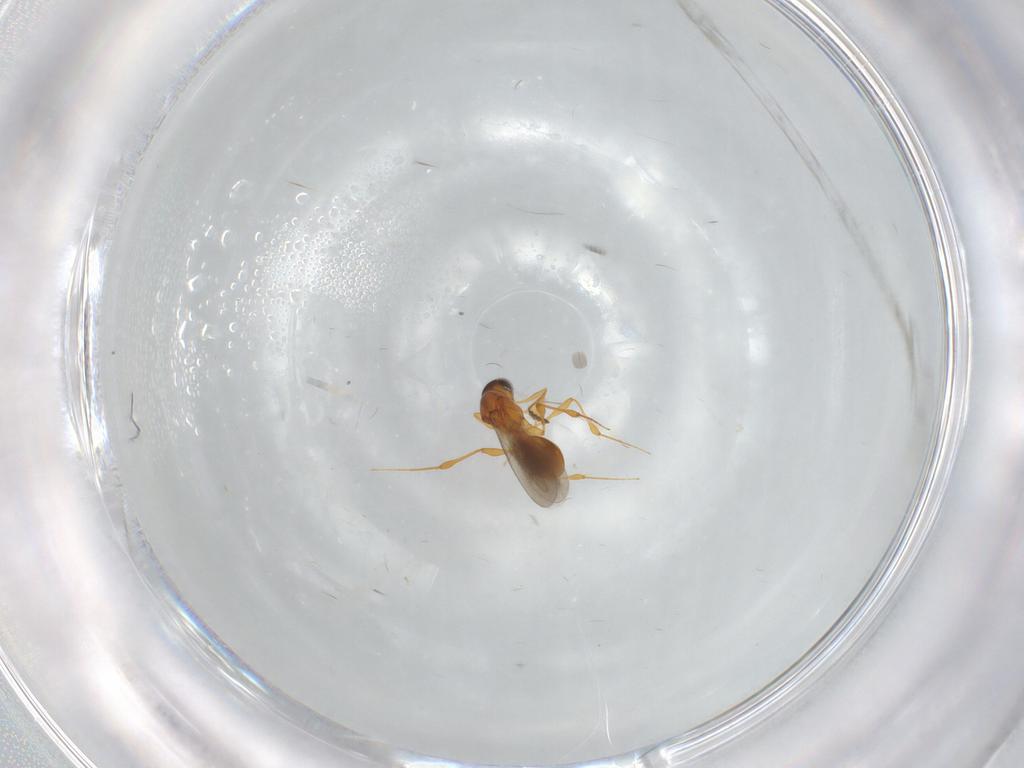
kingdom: Animalia
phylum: Arthropoda
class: Insecta
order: Hymenoptera
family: Platygastridae
